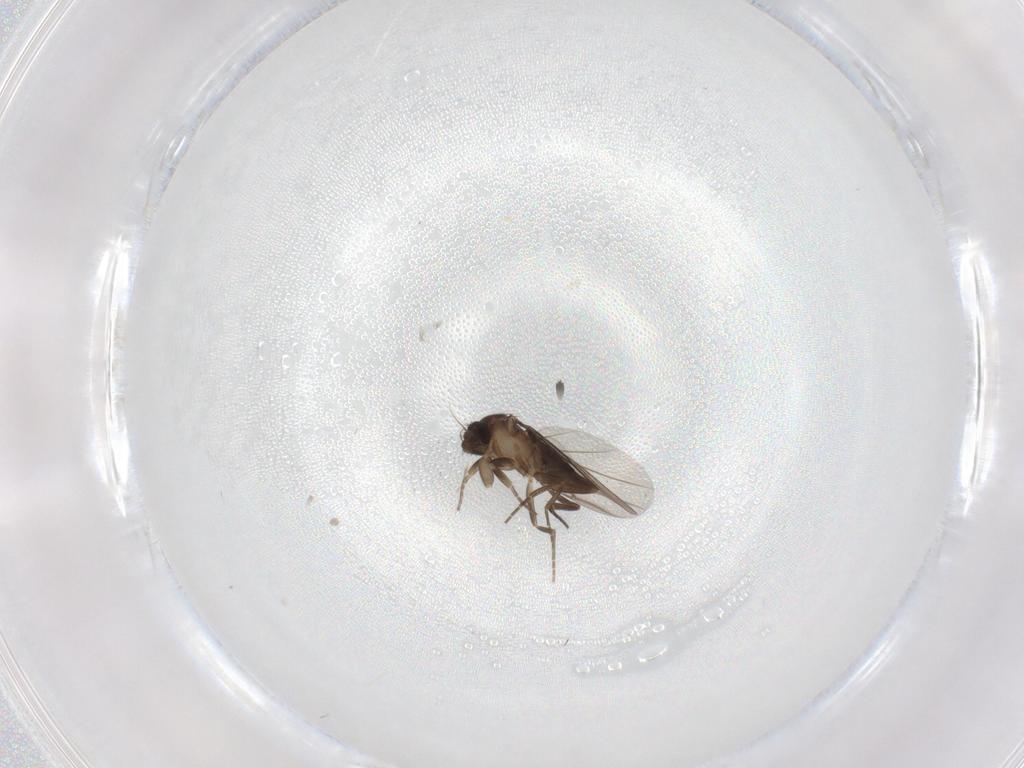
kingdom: Animalia
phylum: Arthropoda
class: Insecta
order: Diptera
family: Phoridae
